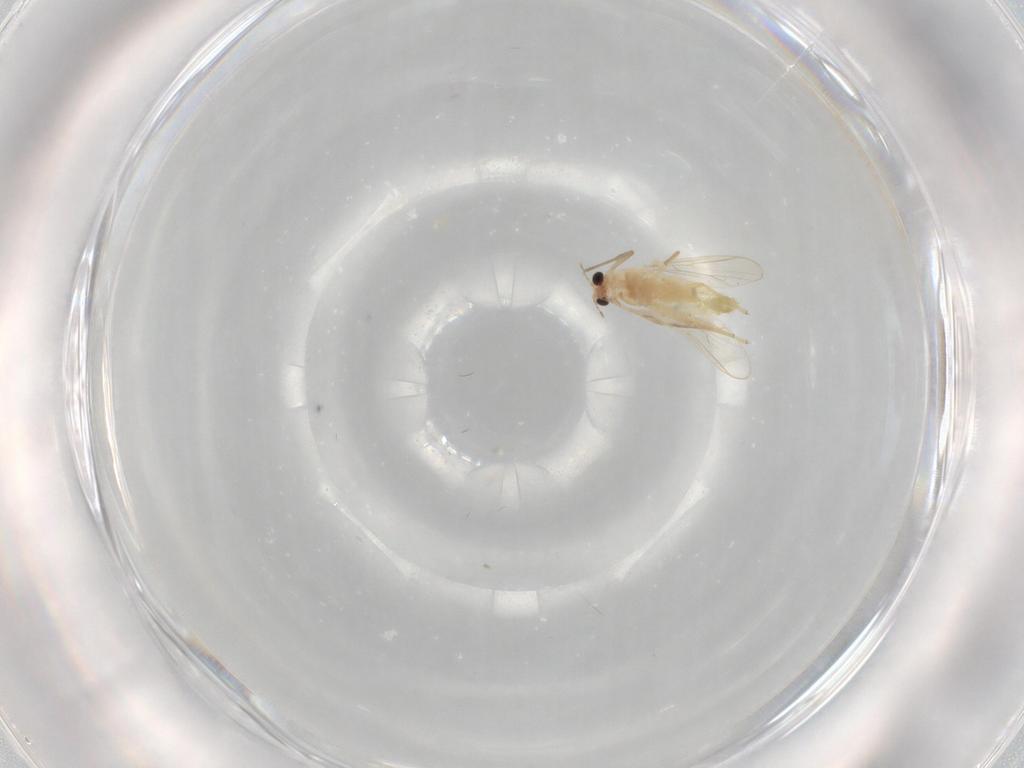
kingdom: Animalia
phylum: Arthropoda
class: Insecta
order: Diptera
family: Chironomidae
